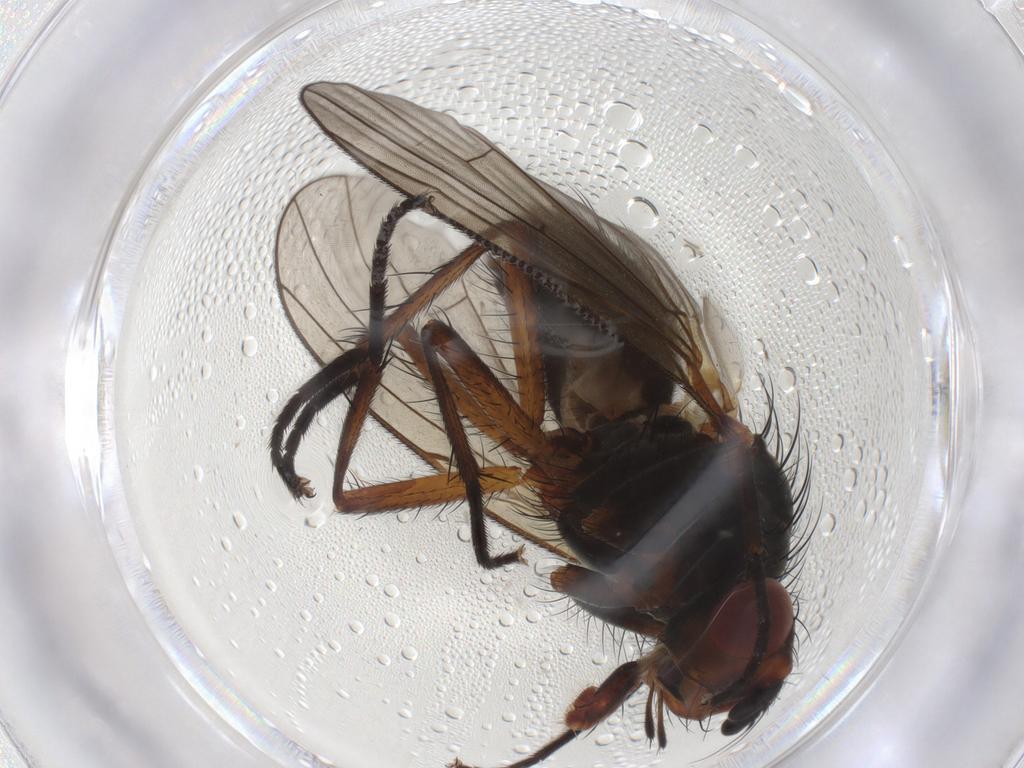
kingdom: Animalia
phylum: Arthropoda
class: Insecta
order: Diptera
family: Anthomyiidae
